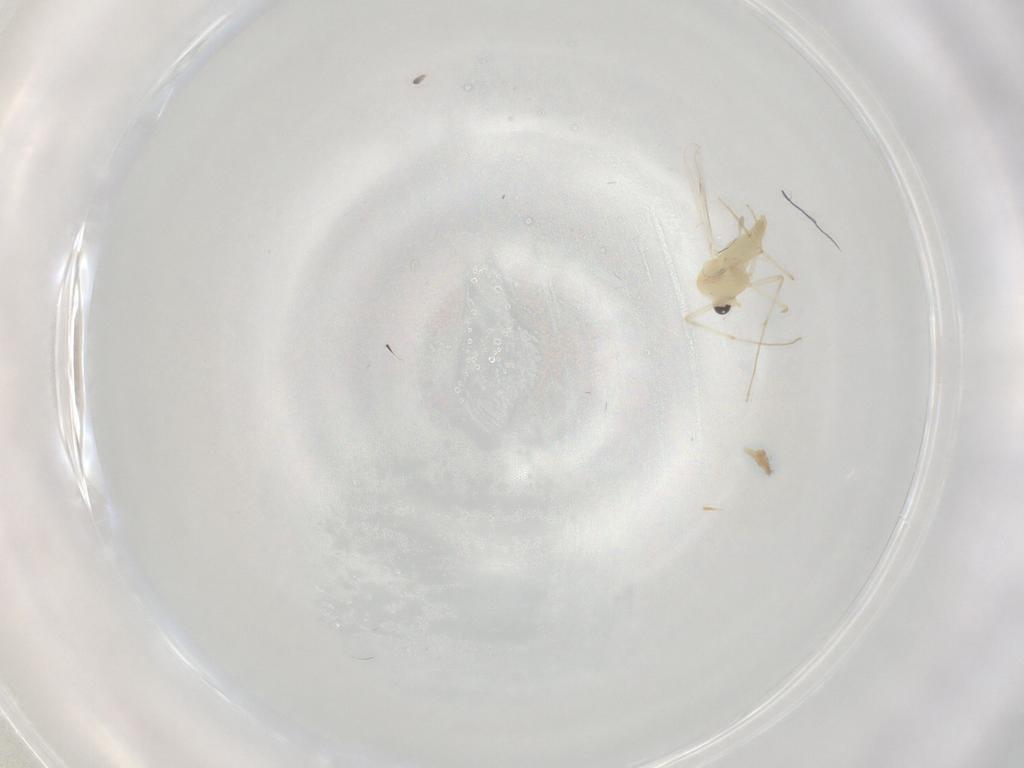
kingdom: Animalia
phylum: Arthropoda
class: Insecta
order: Diptera
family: Chironomidae
